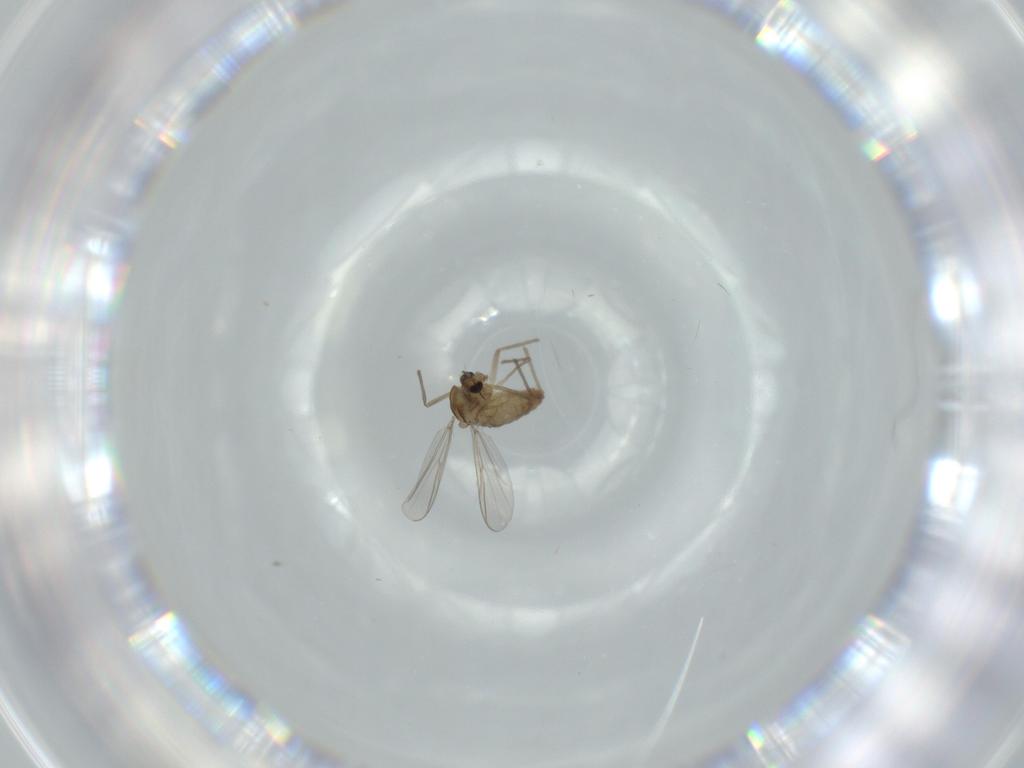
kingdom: Animalia
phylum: Arthropoda
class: Insecta
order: Diptera
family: Chironomidae
